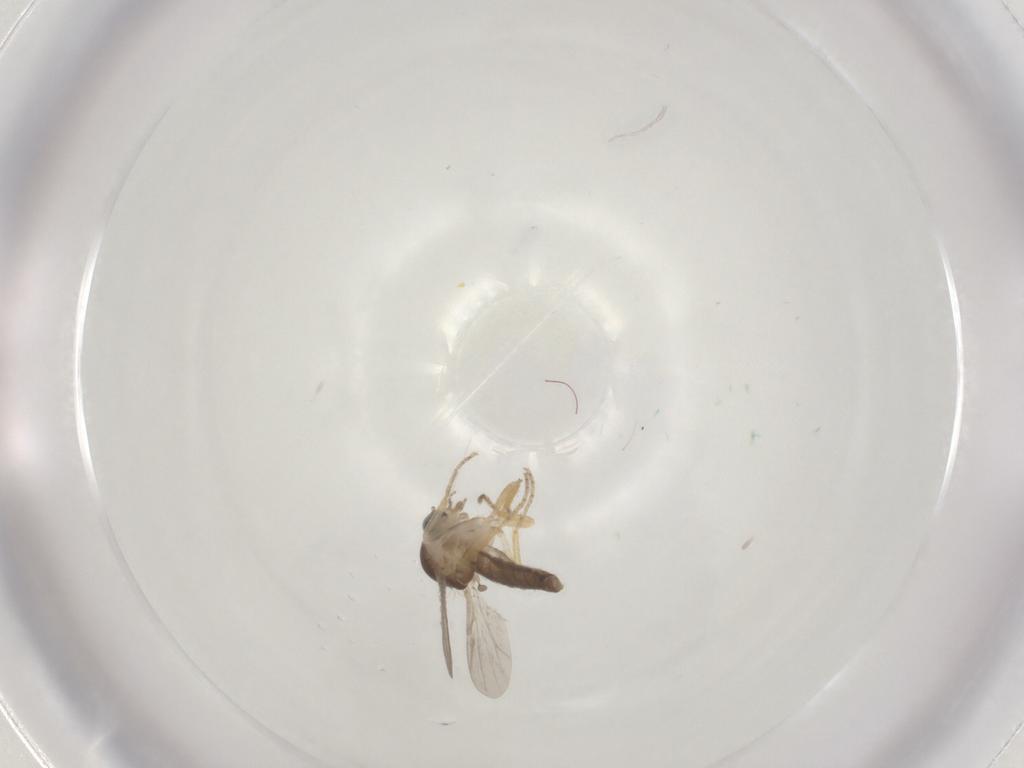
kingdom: Animalia
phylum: Arthropoda
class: Insecta
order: Diptera
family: Ceratopogonidae
